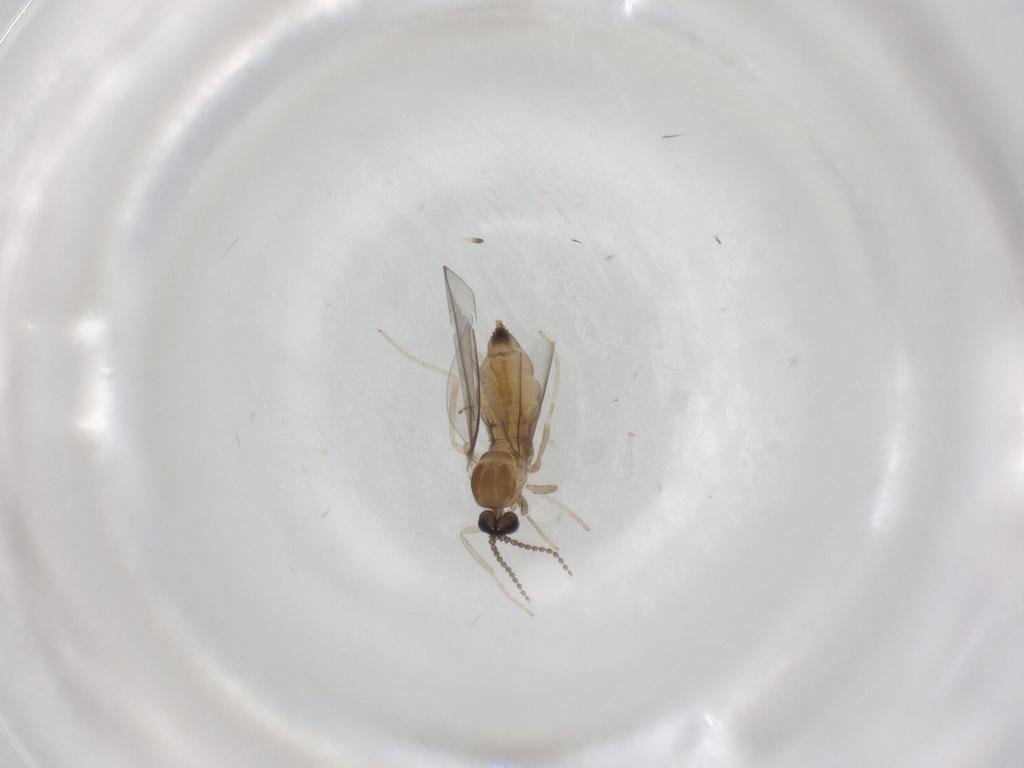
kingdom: Animalia
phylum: Arthropoda
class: Insecta
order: Diptera
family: Cecidomyiidae
